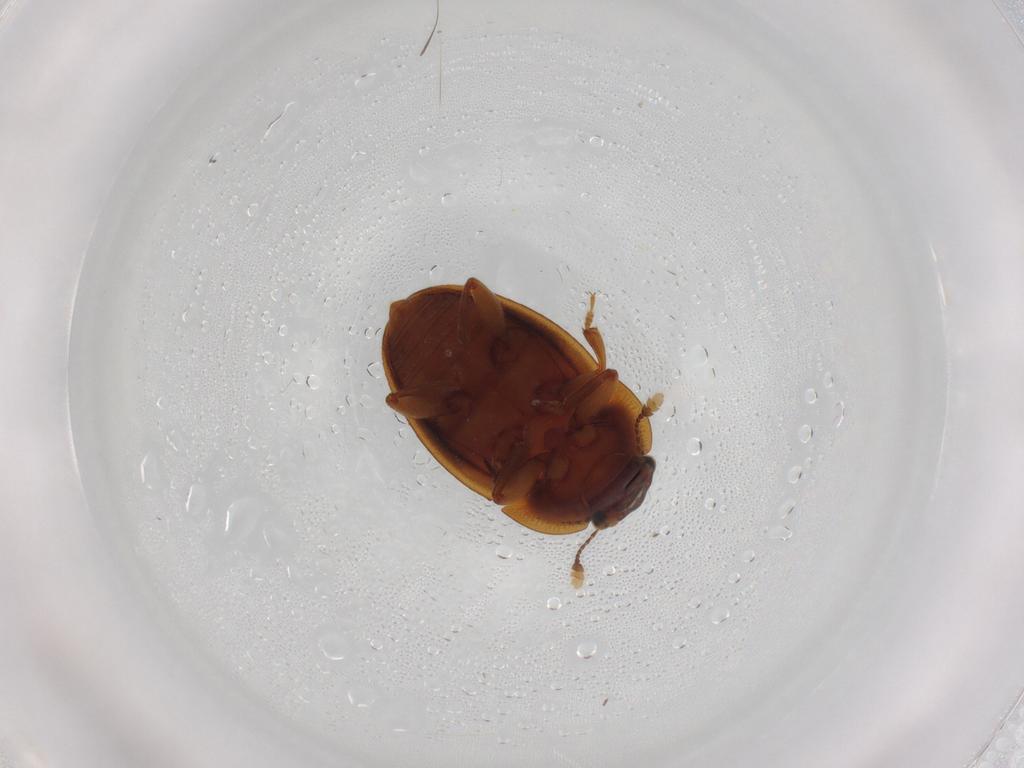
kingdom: Animalia
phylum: Arthropoda
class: Insecta
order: Coleoptera
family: Nitidulidae
